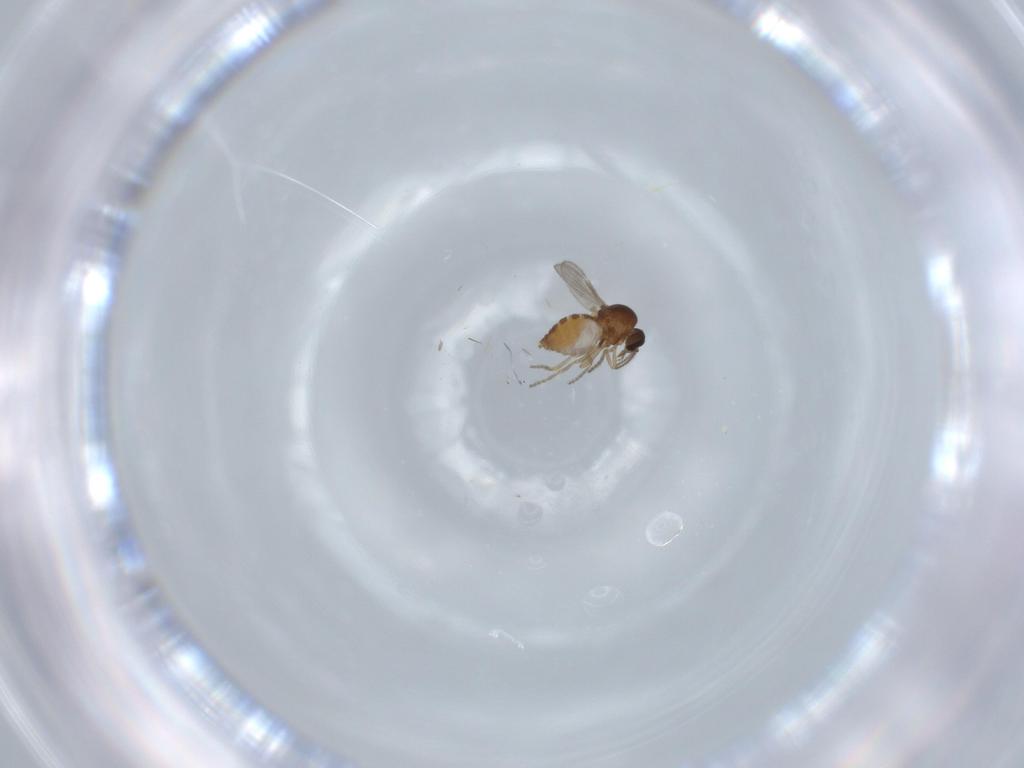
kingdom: Animalia
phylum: Arthropoda
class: Insecta
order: Diptera
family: Ceratopogonidae
